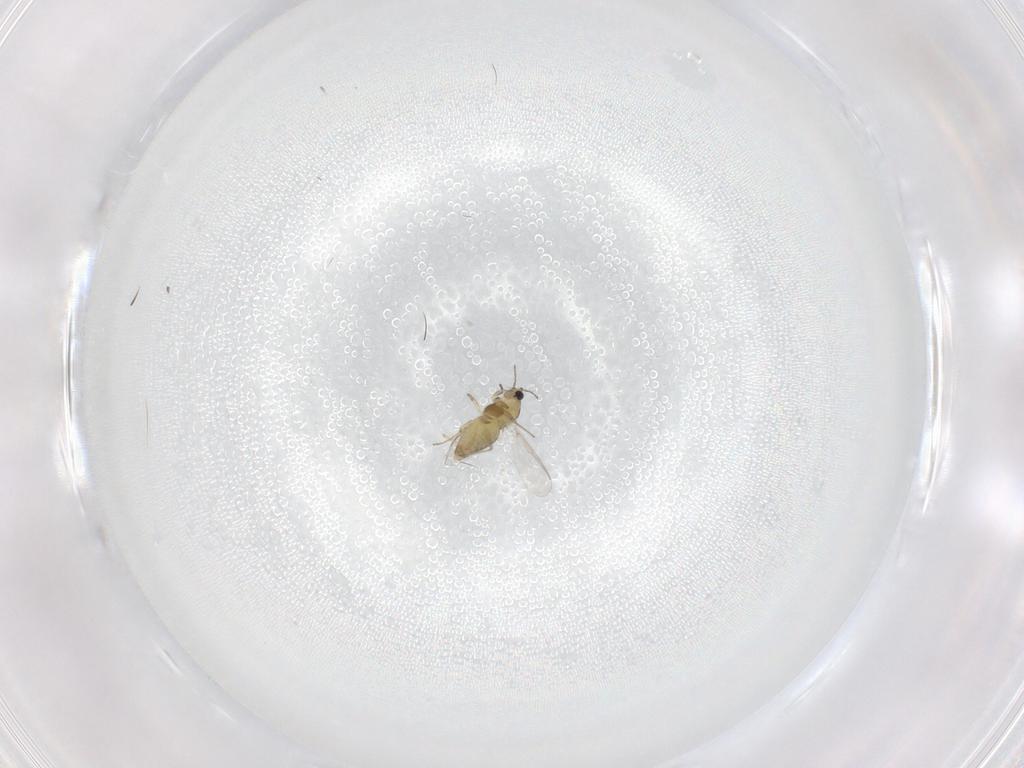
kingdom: Animalia
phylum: Arthropoda
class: Insecta
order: Diptera
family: Chironomidae
